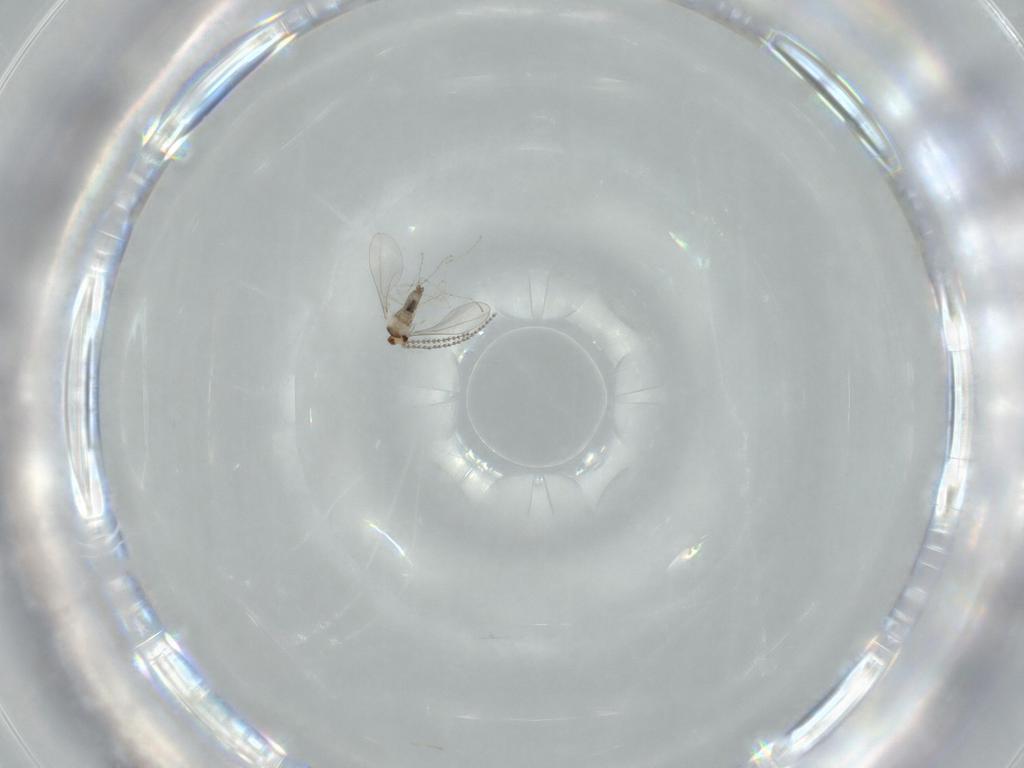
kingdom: Animalia
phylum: Arthropoda
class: Insecta
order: Diptera
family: Cecidomyiidae
